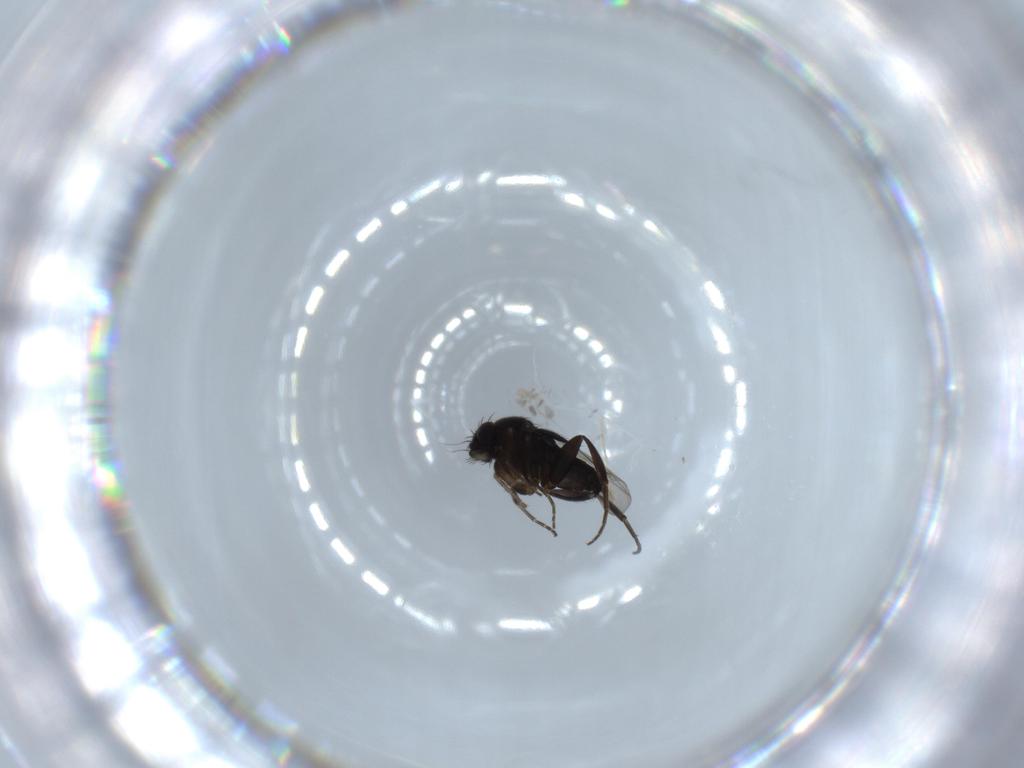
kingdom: Animalia
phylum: Arthropoda
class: Insecta
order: Diptera
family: Phoridae
